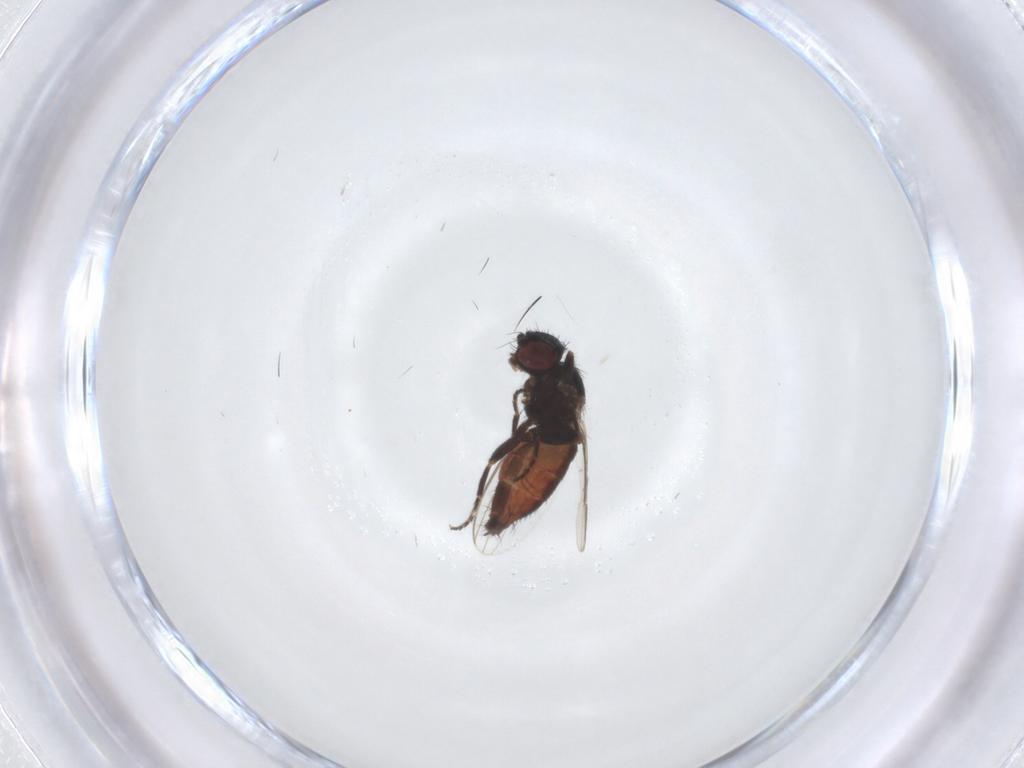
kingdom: Animalia
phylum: Arthropoda
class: Insecta
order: Diptera
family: Milichiidae
